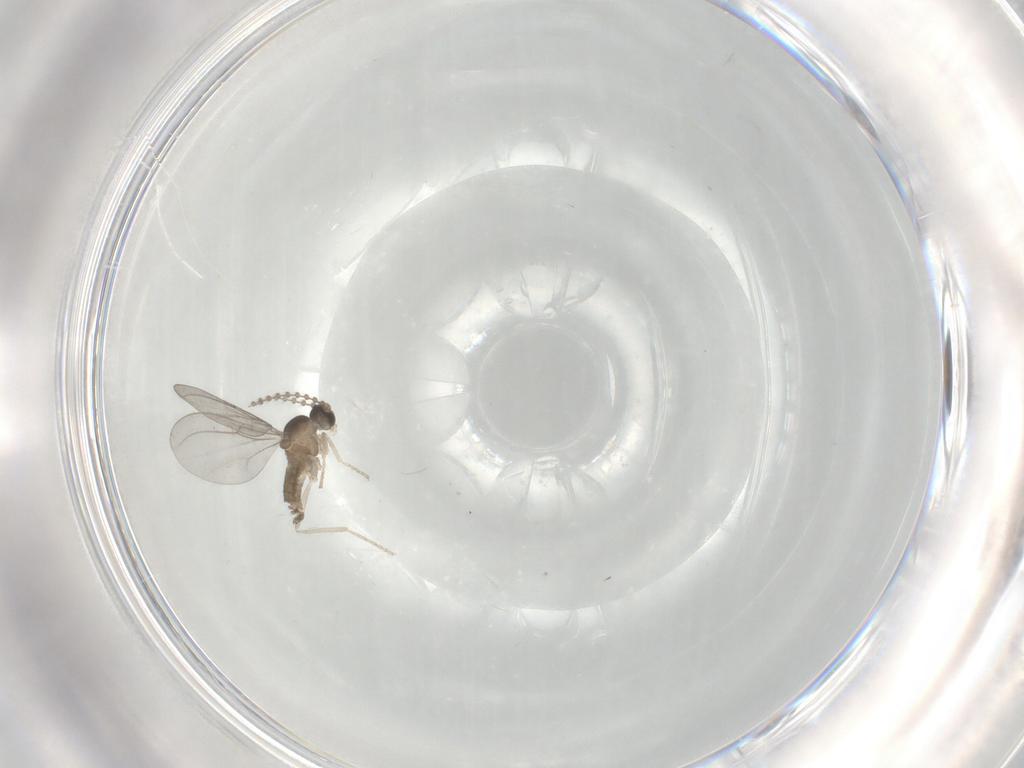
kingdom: Animalia
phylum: Arthropoda
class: Insecta
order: Diptera
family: Cecidomyiidae
